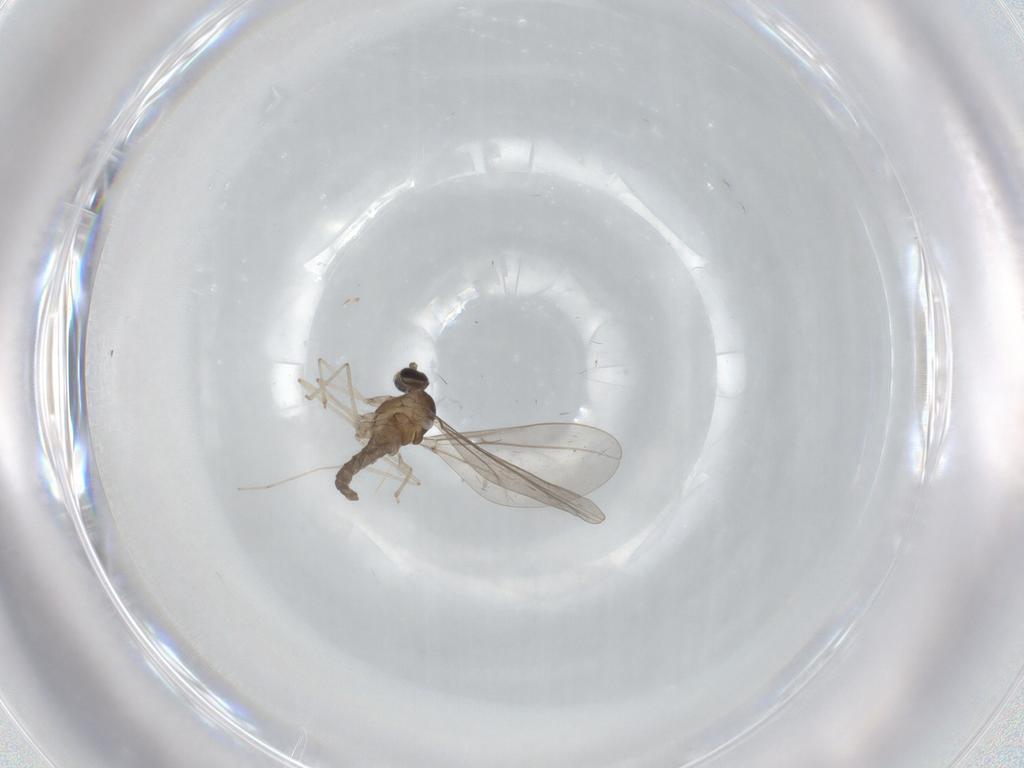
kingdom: Animalia
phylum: Arthropoda
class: Insecta
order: Diptera
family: Cecidomyiidae
